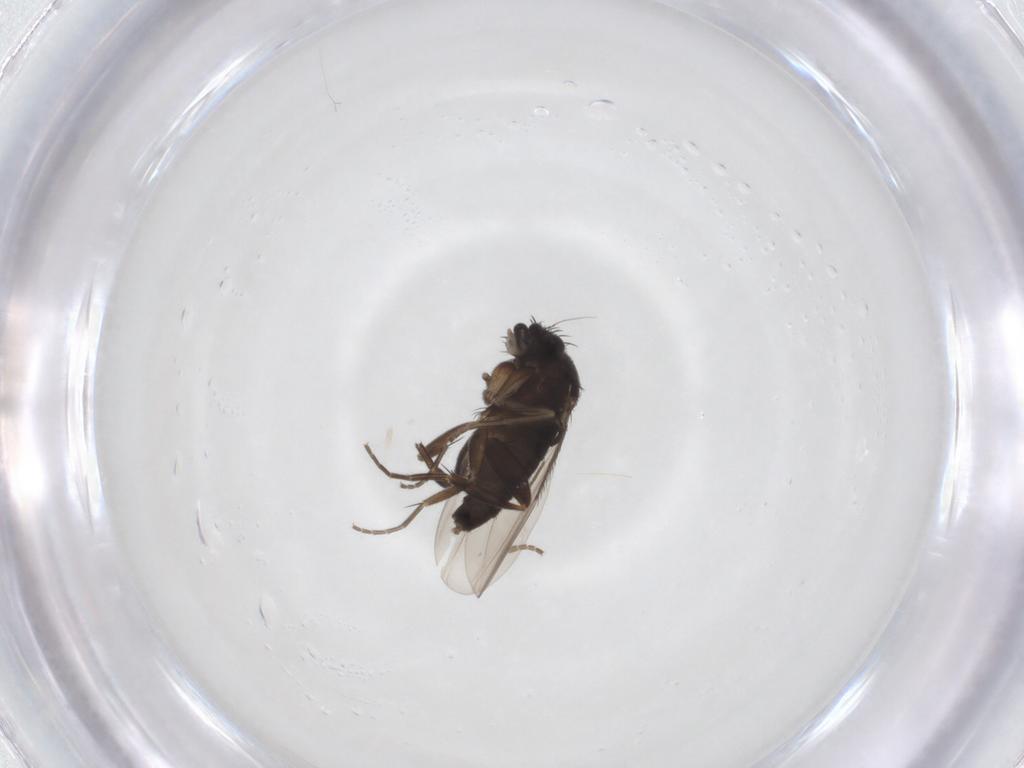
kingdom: Animalia
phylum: Arthropoda
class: Insecta
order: Diptera
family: Phoridae
